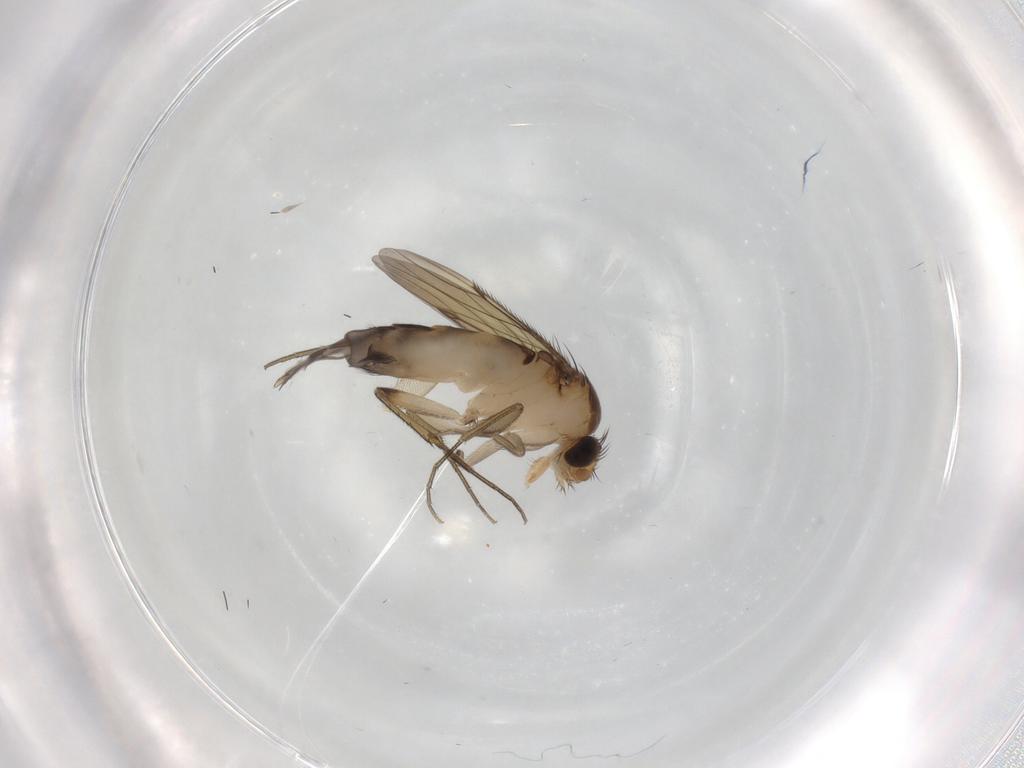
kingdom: Animalia
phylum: Arthropoda
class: Insecta
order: Diptera
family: Phoridae
